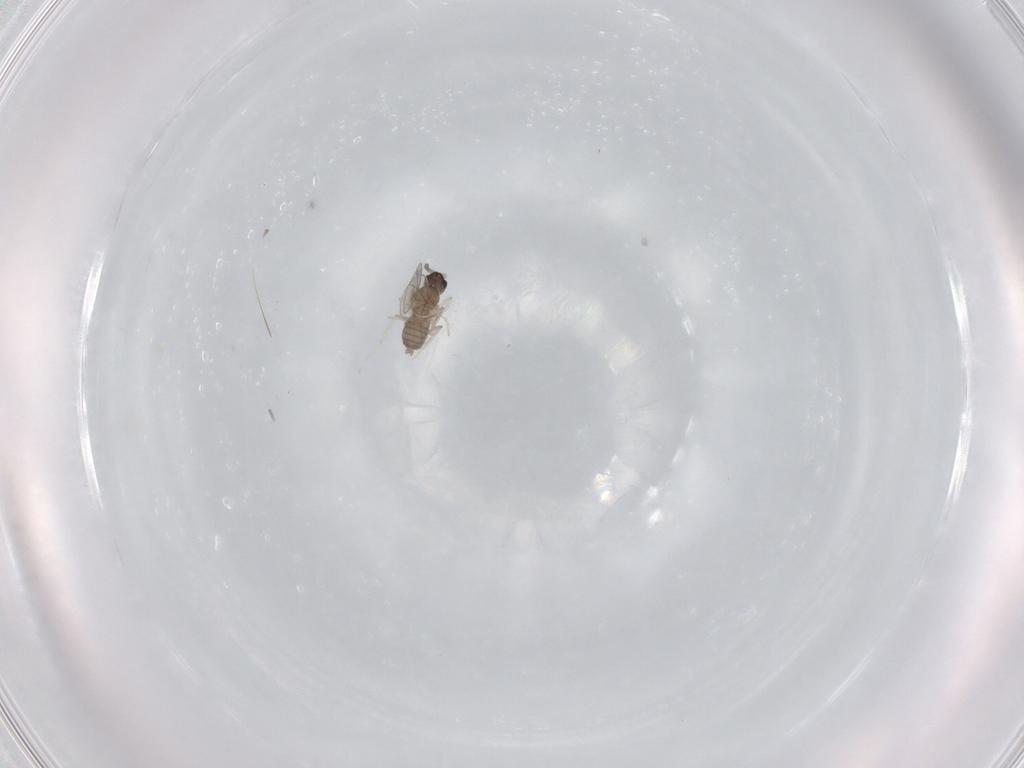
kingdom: Animalia
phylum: Arthropoda
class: Insecta
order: Diptera
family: Cecidomyiidae
